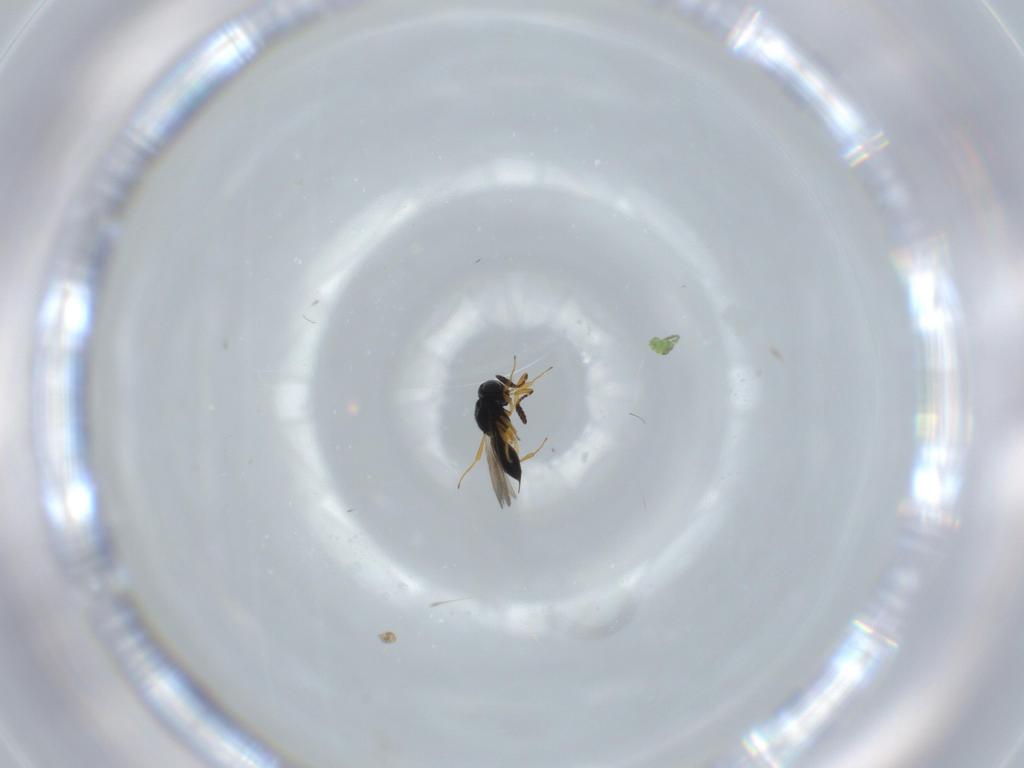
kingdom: Animalia
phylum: Arthropoda
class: Insecta
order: Hymenoptera
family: Scelionidae
